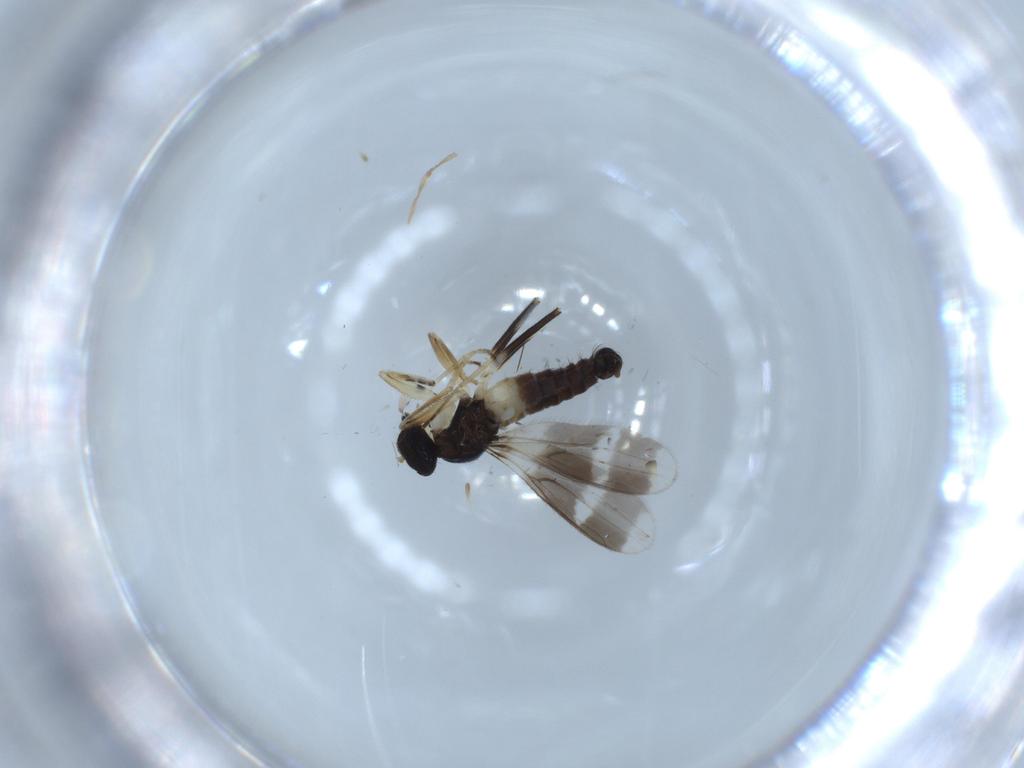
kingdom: Animalia
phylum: Arthropoda
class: Insecta
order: Diptera
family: Hybotidae
